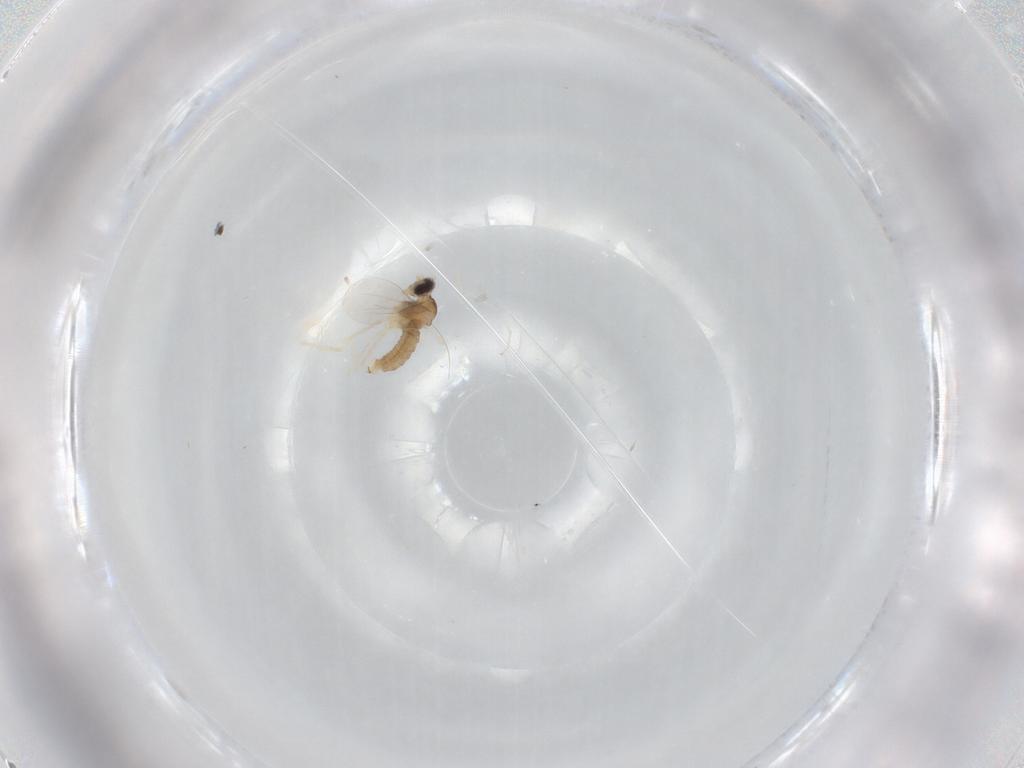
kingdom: Animalia
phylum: Arthropoda
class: Insecta
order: Diptera
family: Cecidomyiidae
